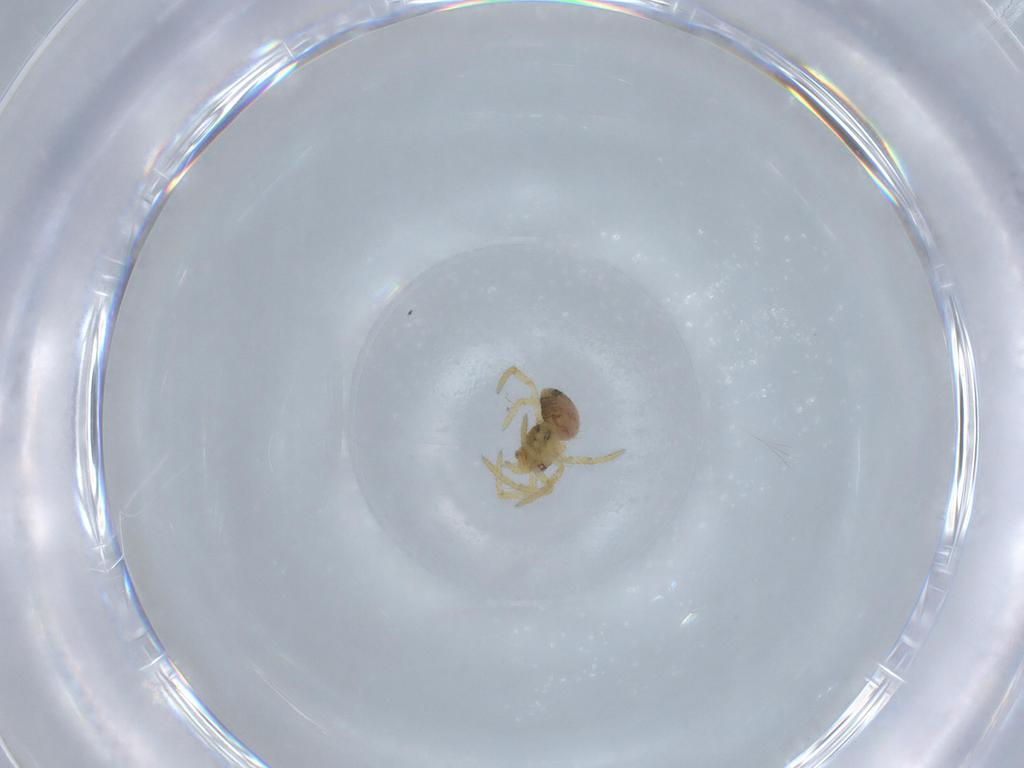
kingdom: Animalia
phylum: Arthropoda
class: Arachnida
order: Araneae
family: Theridiidae
